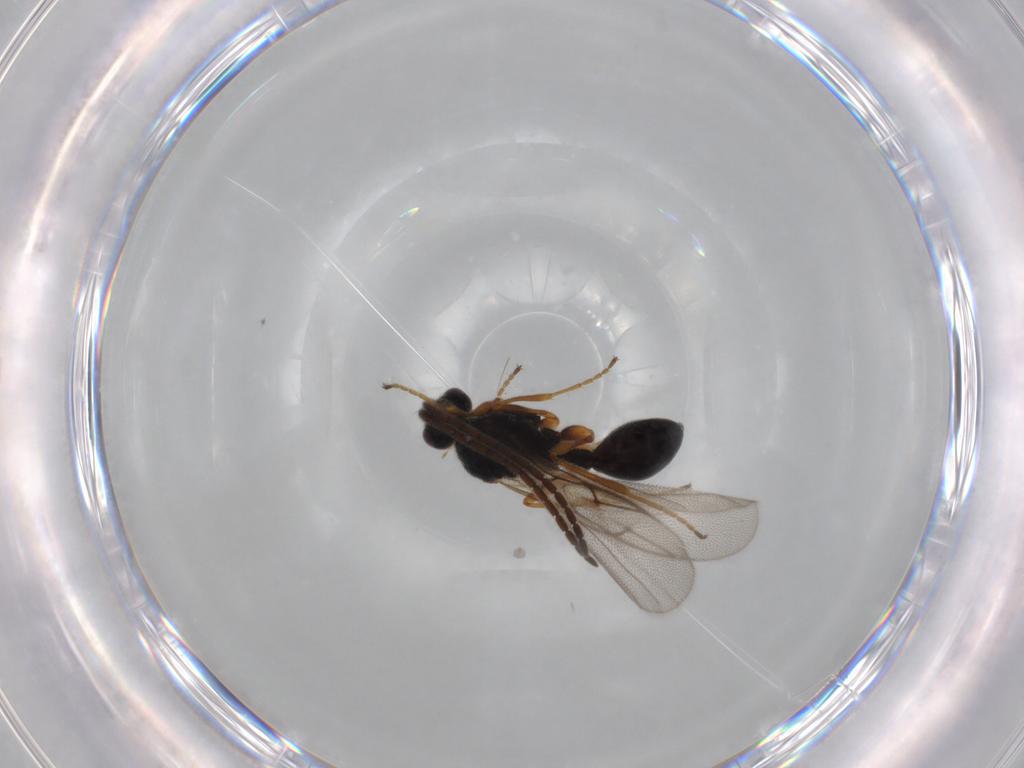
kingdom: Animalia
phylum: Arthropoda
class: Insecta
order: Hymenoptera
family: Diapriidae
